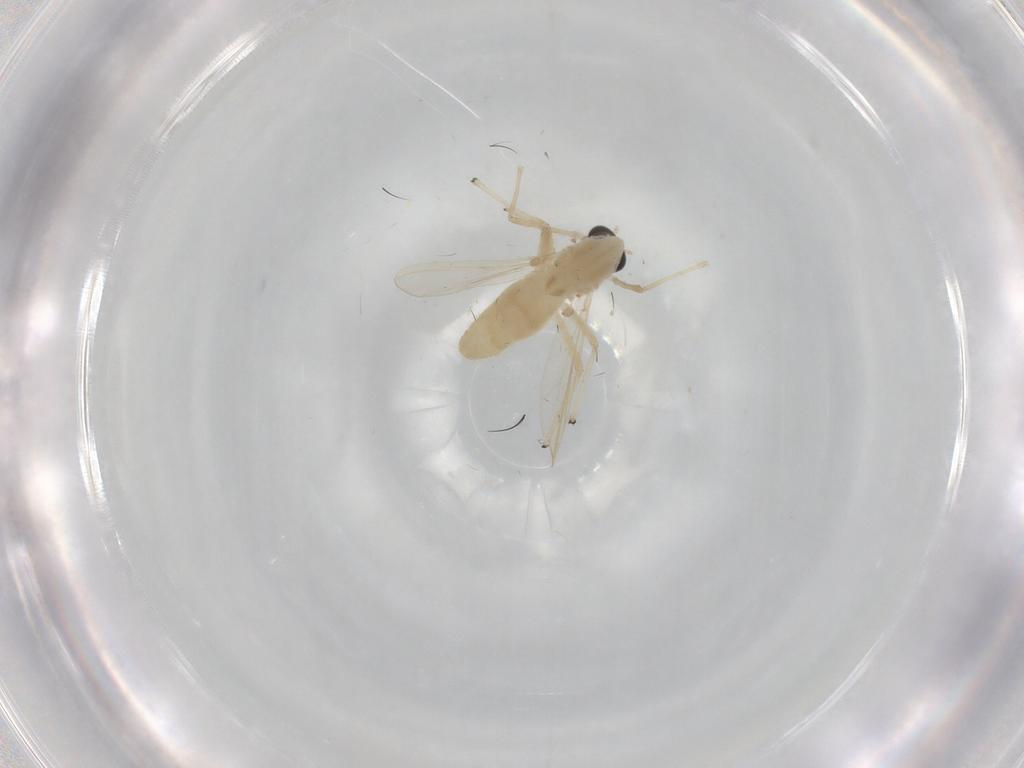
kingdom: Animalia
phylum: Arthropoda
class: Insecta
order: Diptera
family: Chironomidae
